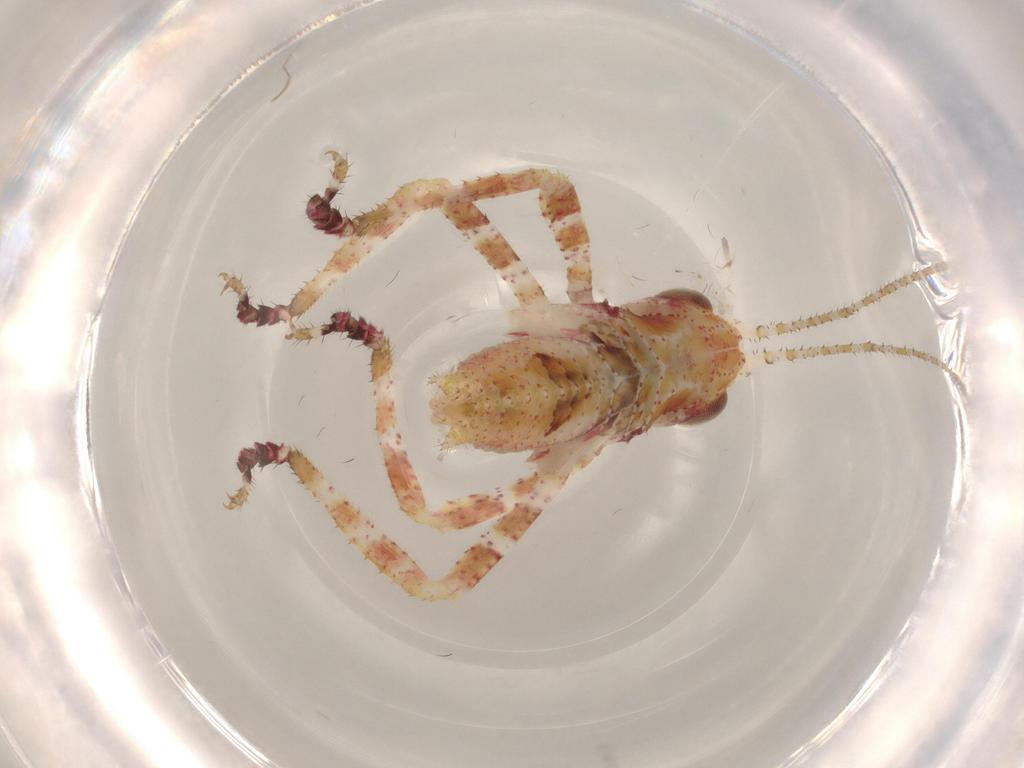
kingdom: Animalia
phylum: Arthropoda
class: Insecta
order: Orthoptera
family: Tettigoniidae
